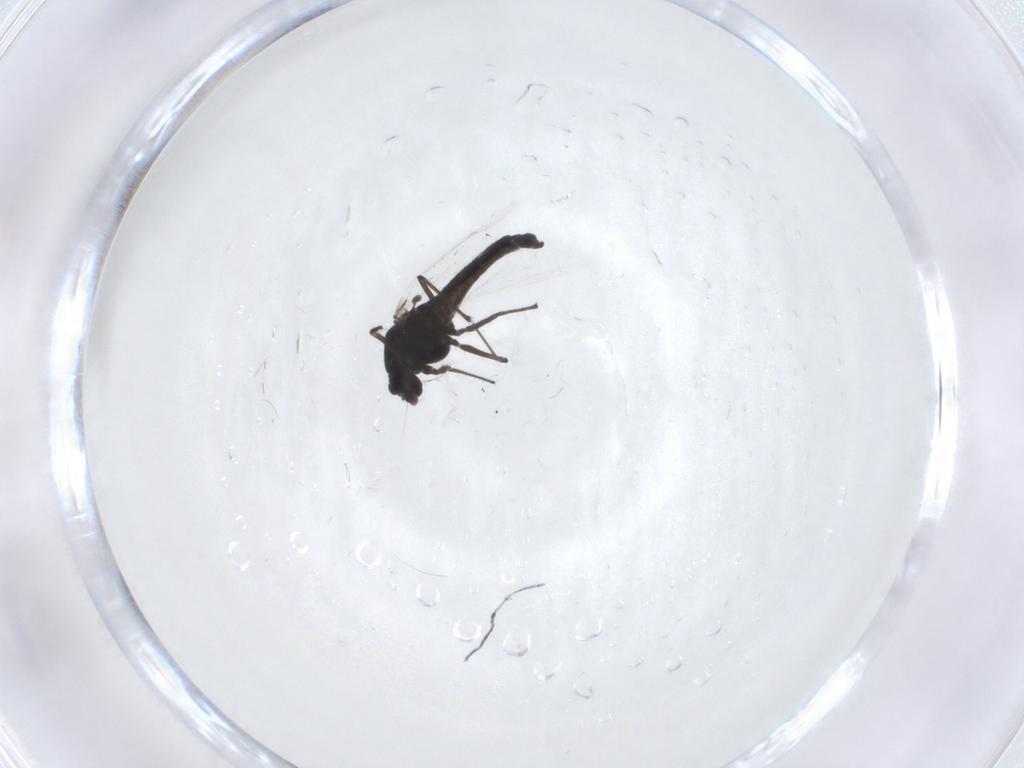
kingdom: Animalia
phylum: Arthropoda
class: Insecta
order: Diptera
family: Chironomidae
